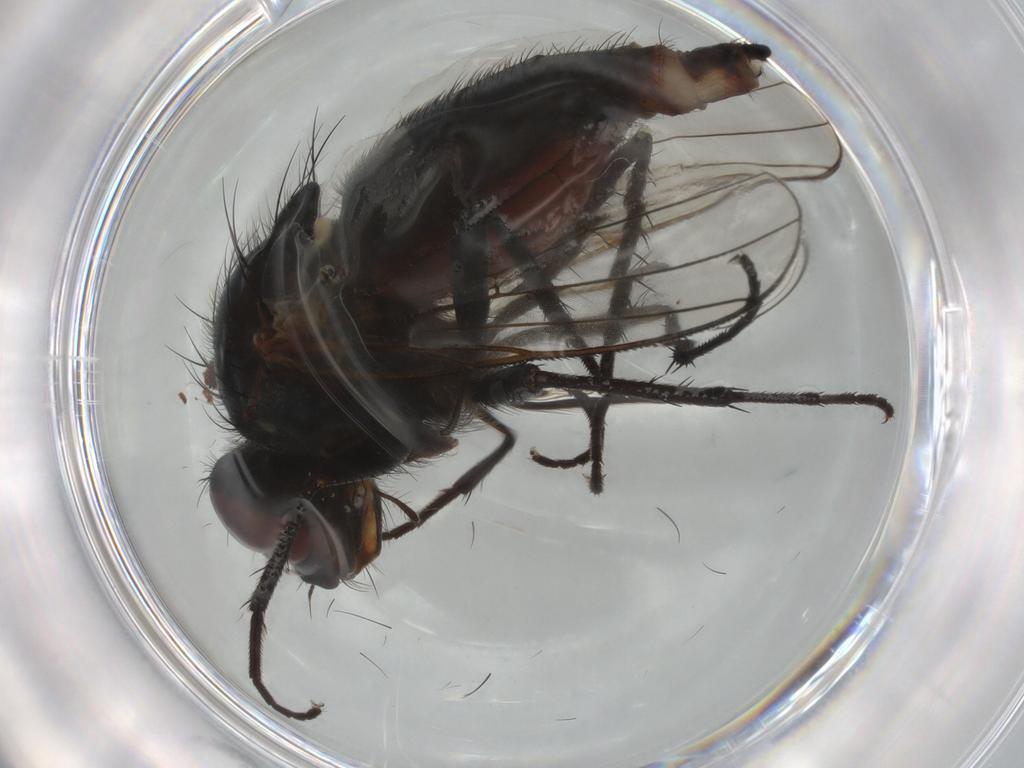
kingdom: Animalia
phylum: Arthropoda
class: Insecta
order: Diptera
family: Anthomyiidae
